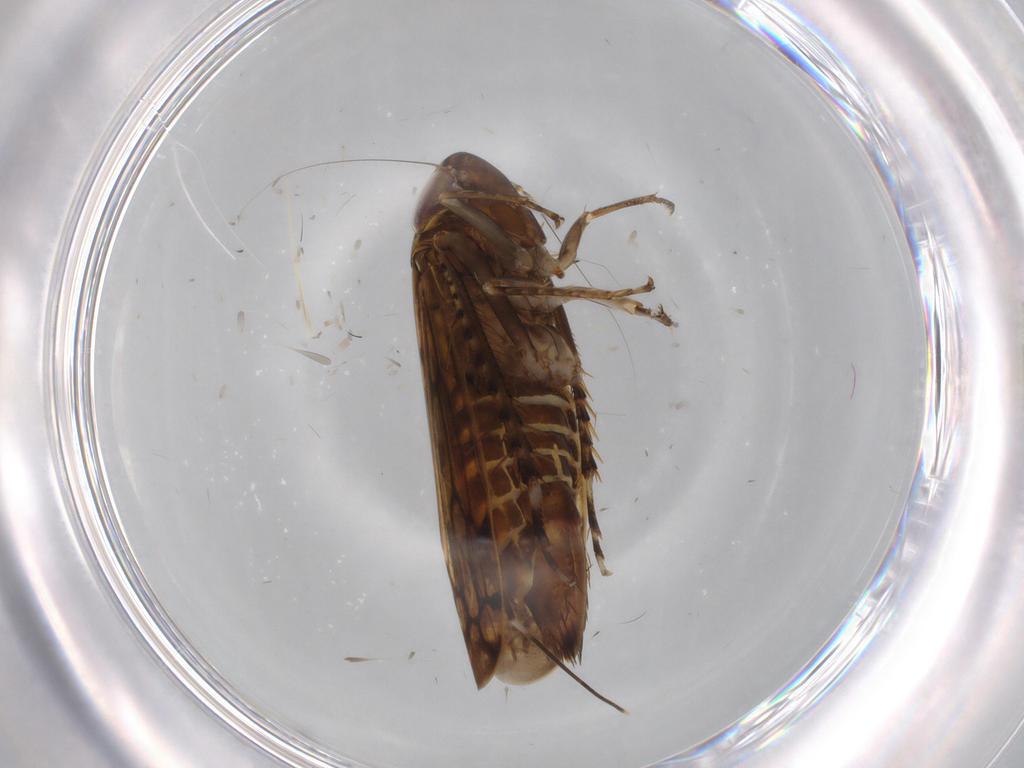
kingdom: Animalia
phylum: Arthropoda
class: Insecta
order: Hemiptera
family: Cicadellidae
